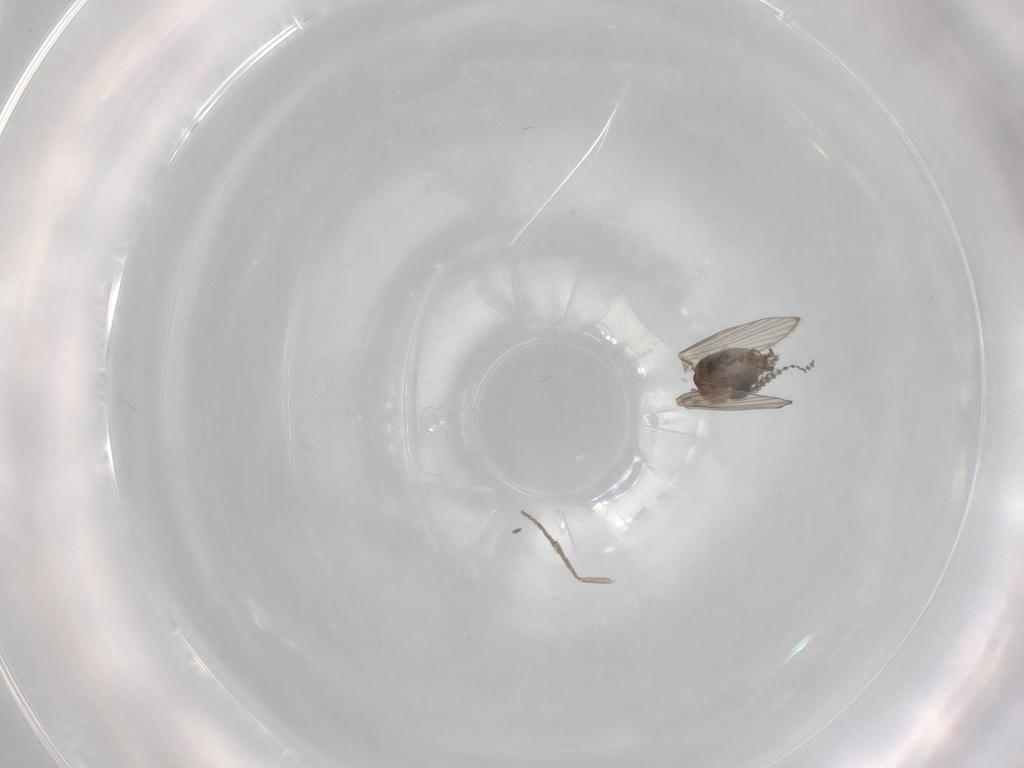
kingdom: Animalia
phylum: Arthropoda
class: Insecta
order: Diptera
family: Psychodidae
